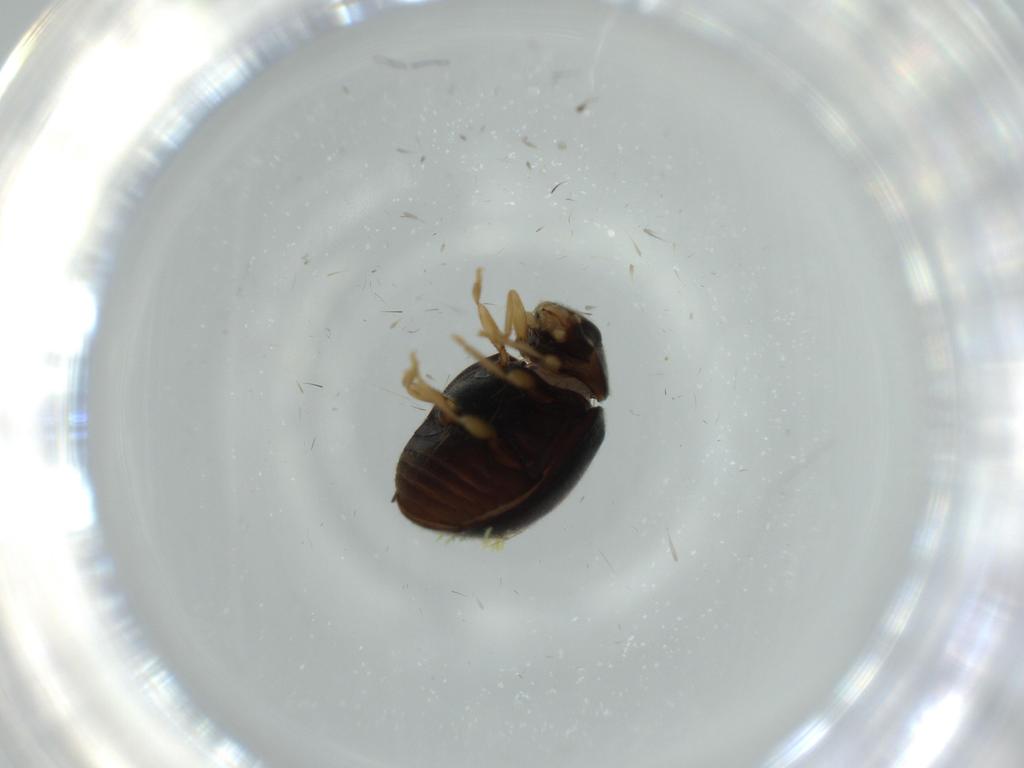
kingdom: Animalia
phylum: Arthropoda
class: Insecta
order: Coleoptera
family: Coccinellidae
